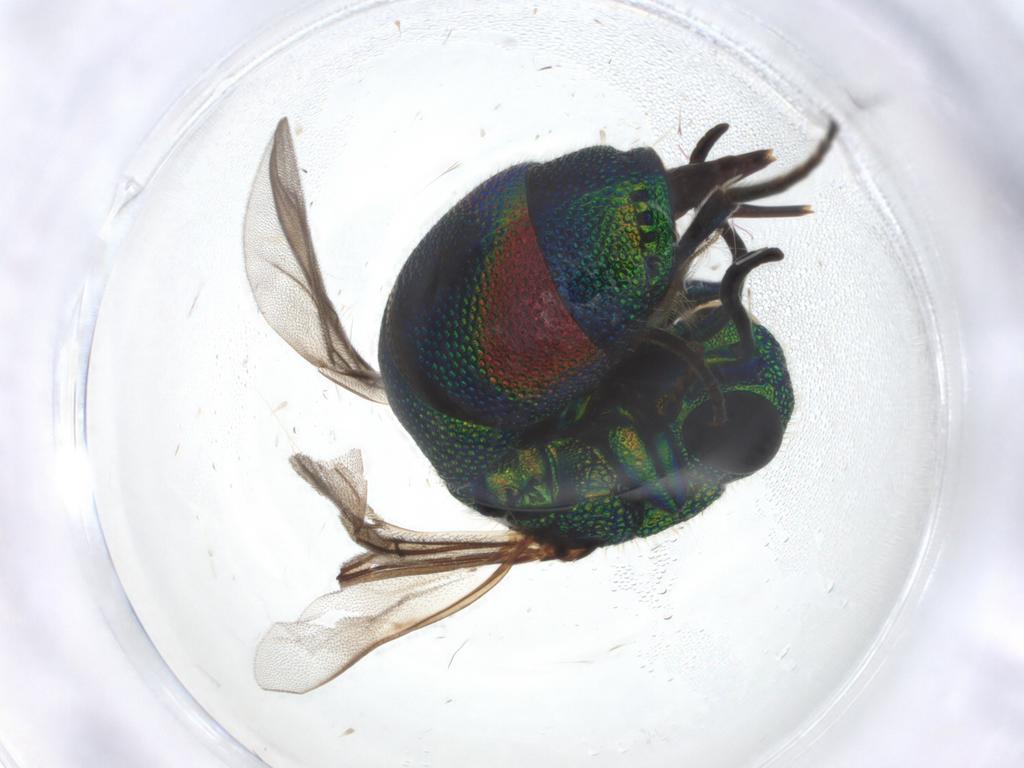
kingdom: Animalia
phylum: Arthropoda
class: Insecta
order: Hymenoptera
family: Chrysididae
